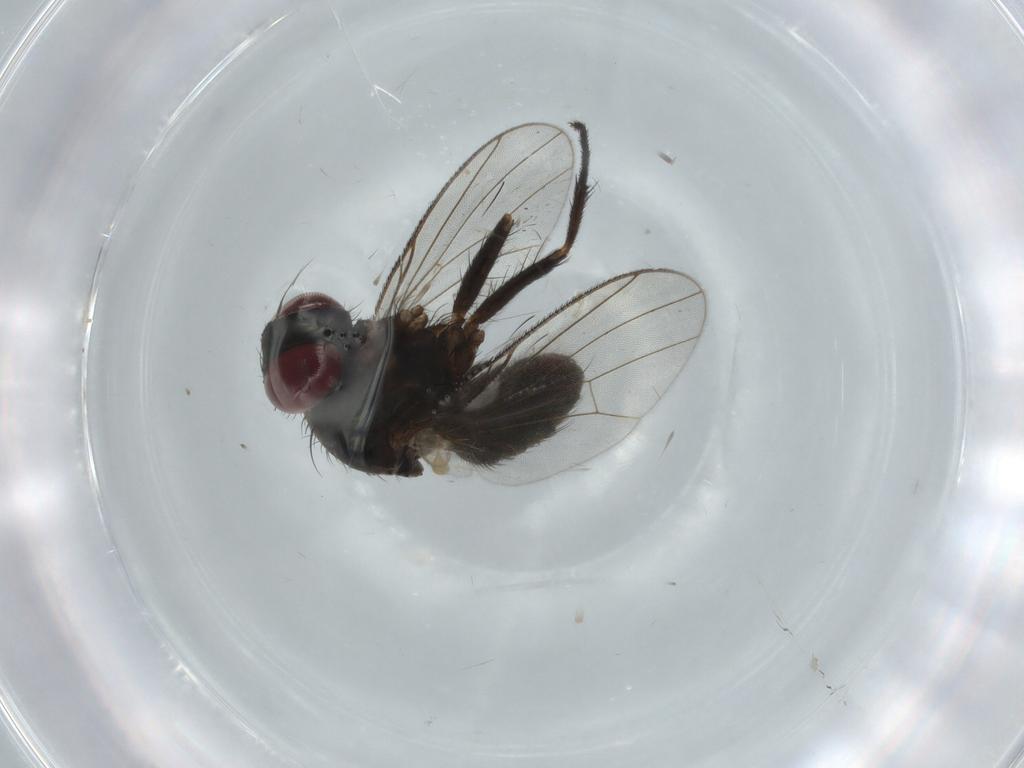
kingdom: Animalia
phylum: Arthropoda
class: Insecta
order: Diptera
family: Muscidae
